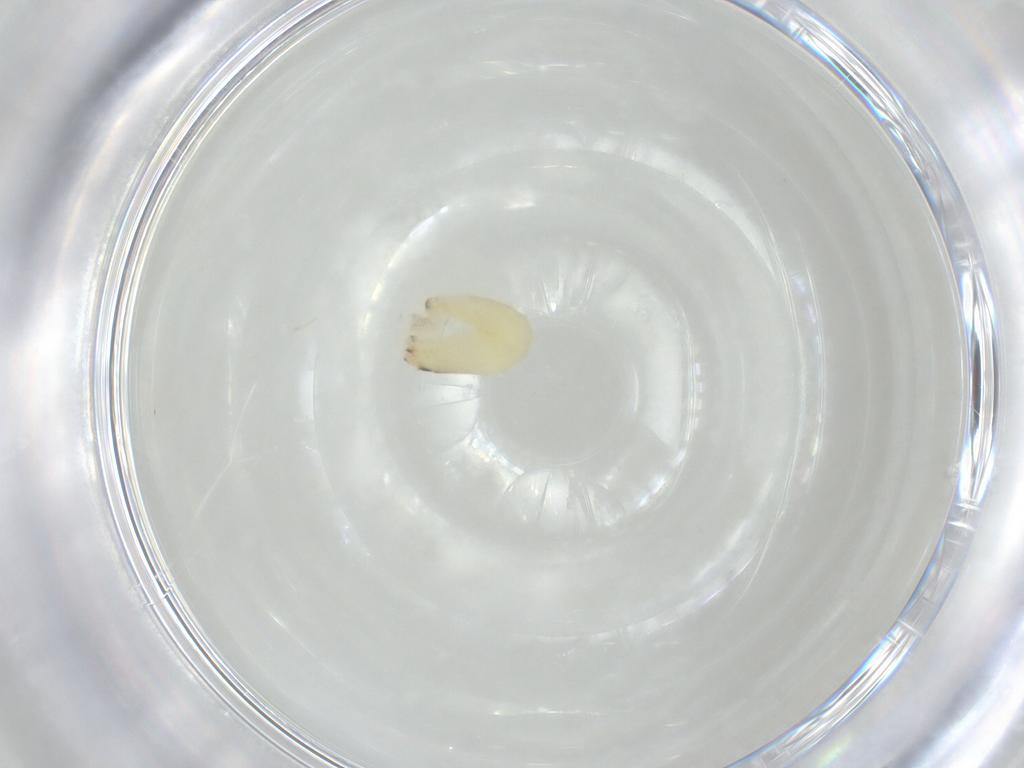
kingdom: Animalia
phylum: Arthropoda
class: Insecta
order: Hymenoptera
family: Dryinidae
